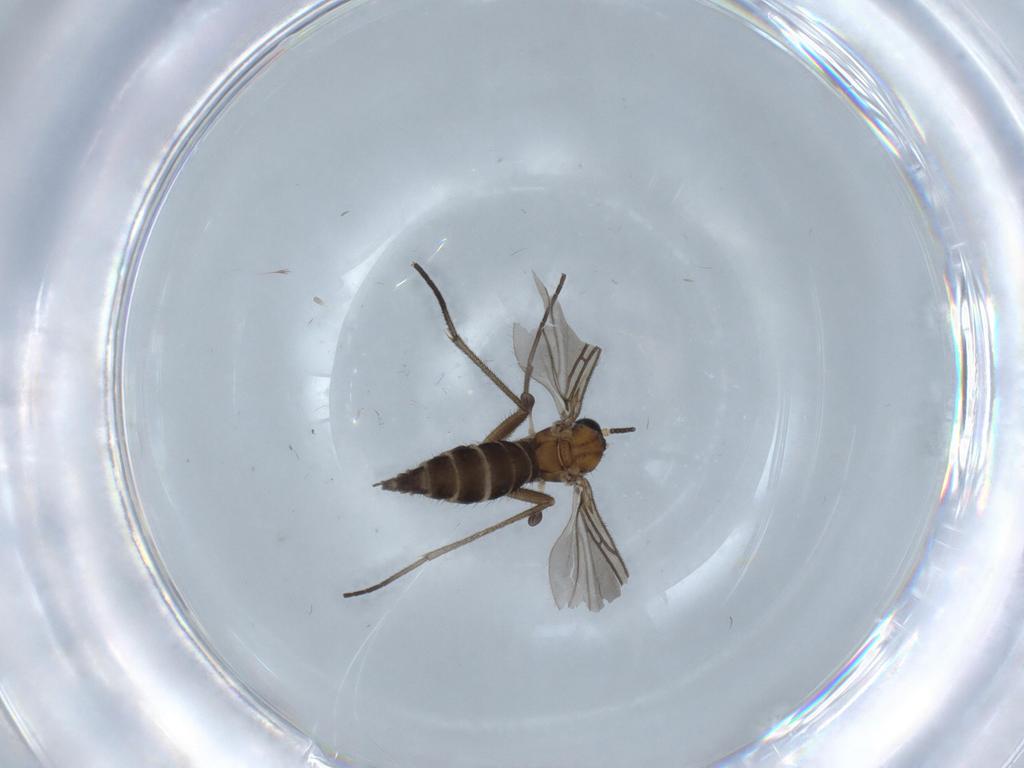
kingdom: Animalia
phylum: Arthropoda
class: Insecta
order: Diptera
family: Sciaridae
